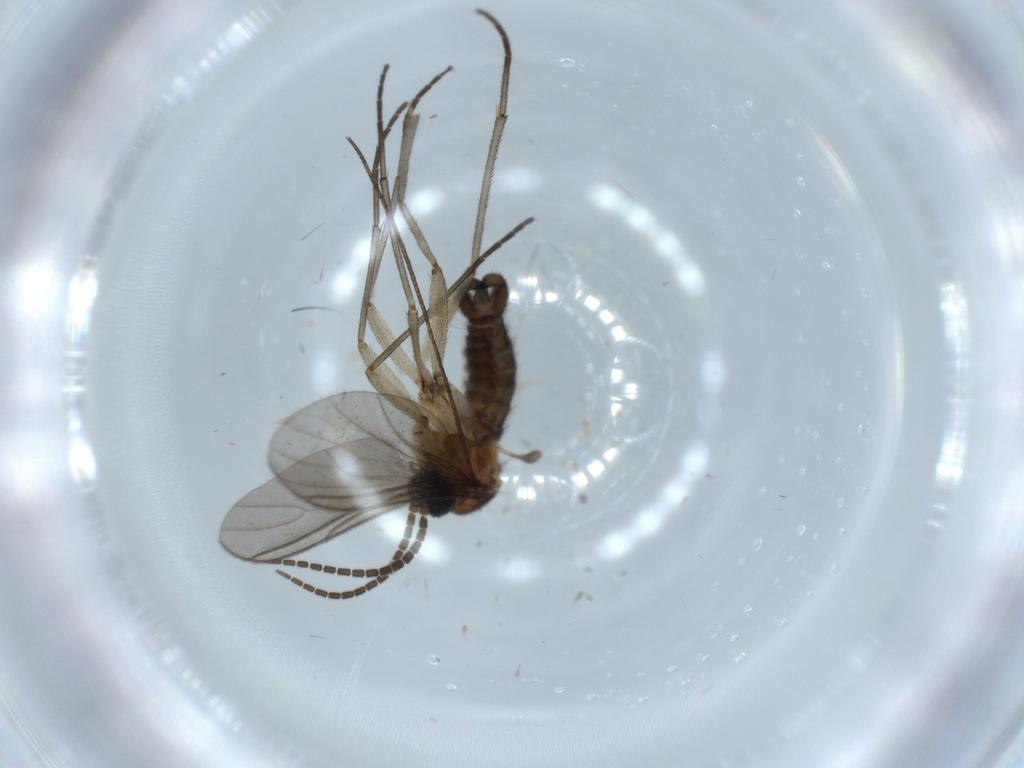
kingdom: Animalia
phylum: Arthropoda
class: Insecta
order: Diptera
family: Sciaridae
